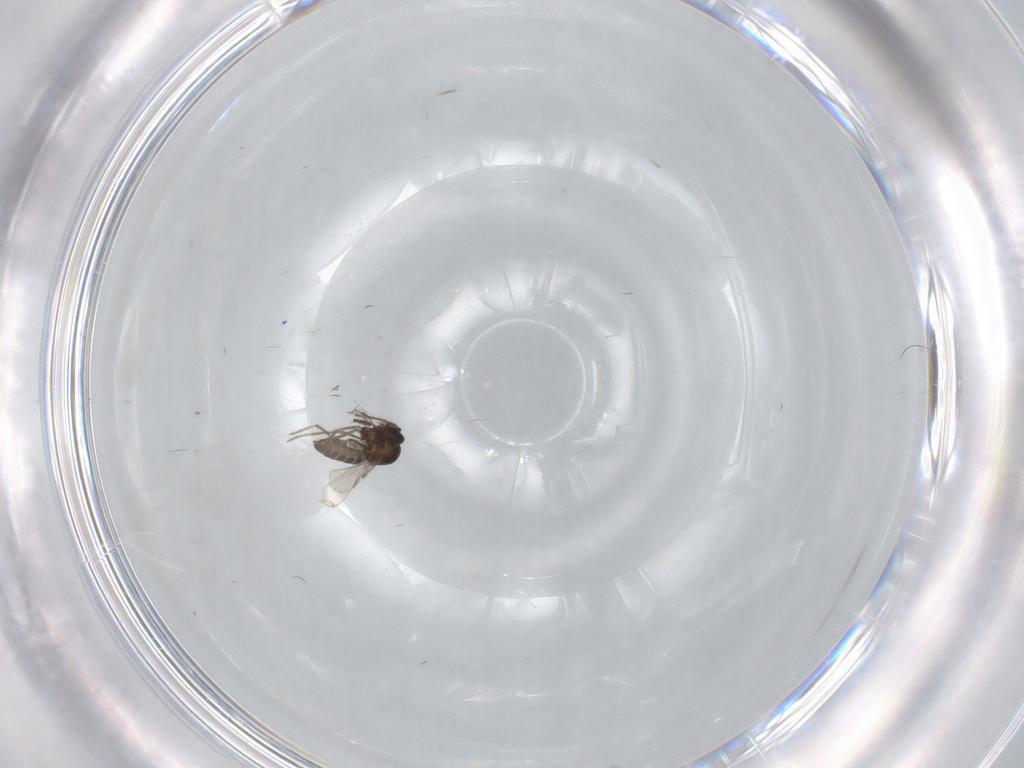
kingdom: Animalia
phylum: Arthropoda
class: Insecta
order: Diptera
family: Ceratopogonidae
